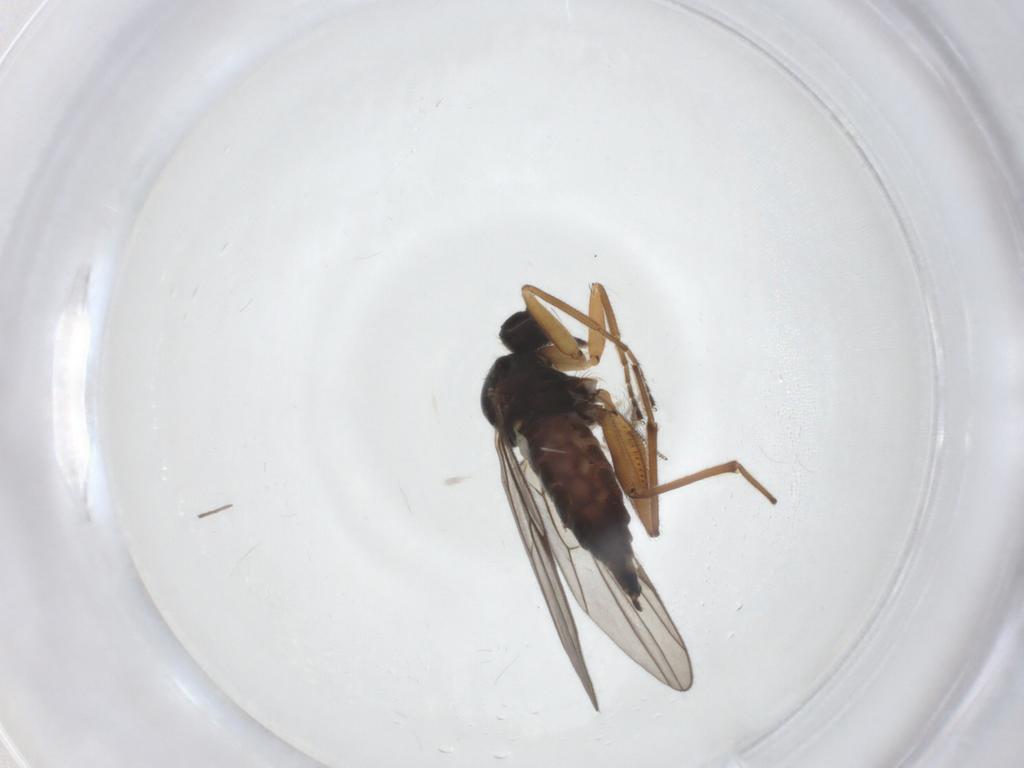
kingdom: Animalia
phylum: Arthropoda
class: Insecta
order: Diptera
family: Hybotidae
